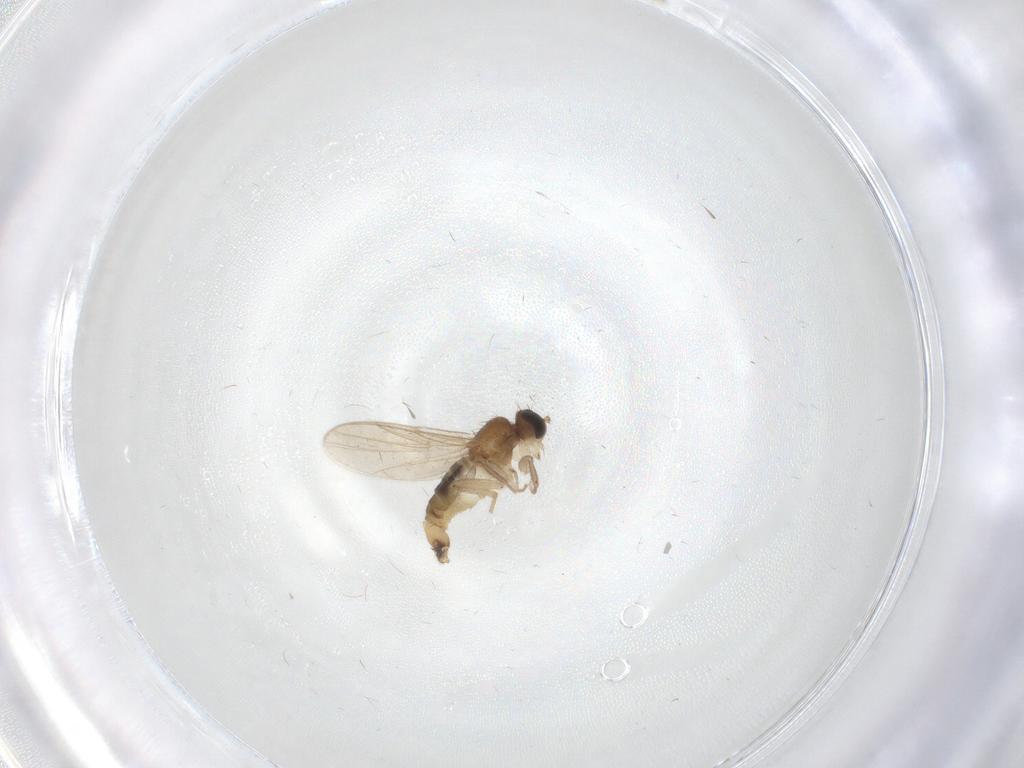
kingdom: Animalia
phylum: Arthropoda
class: Insecta
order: Diptera
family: Hybotidae
